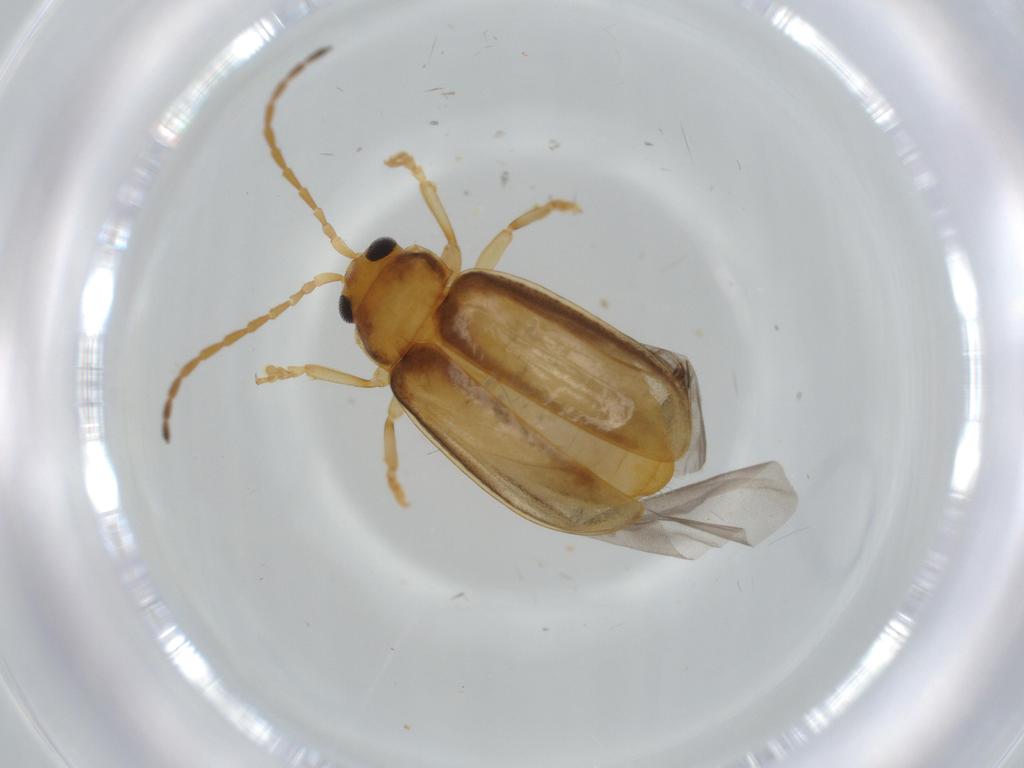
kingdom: Animalia
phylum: Arthropoda
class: Insecta
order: Coleoptera
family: Chrysomelidae
